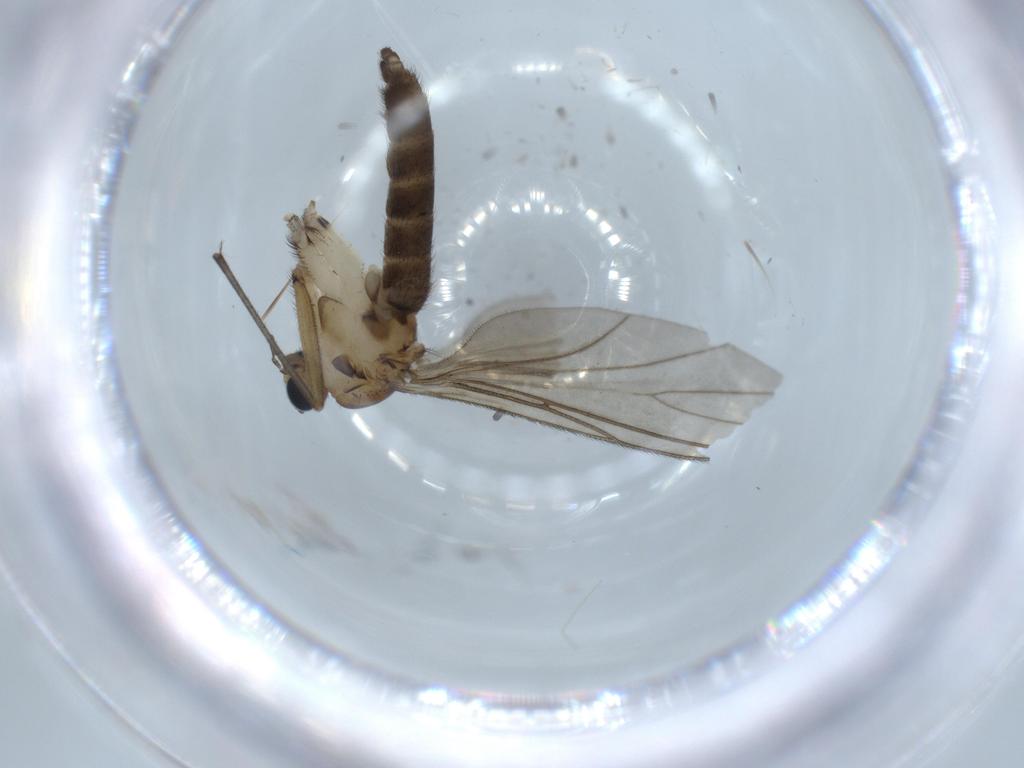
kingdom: Animalia
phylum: Arthropoda
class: Insecta
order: Diptera
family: Sciaridae
